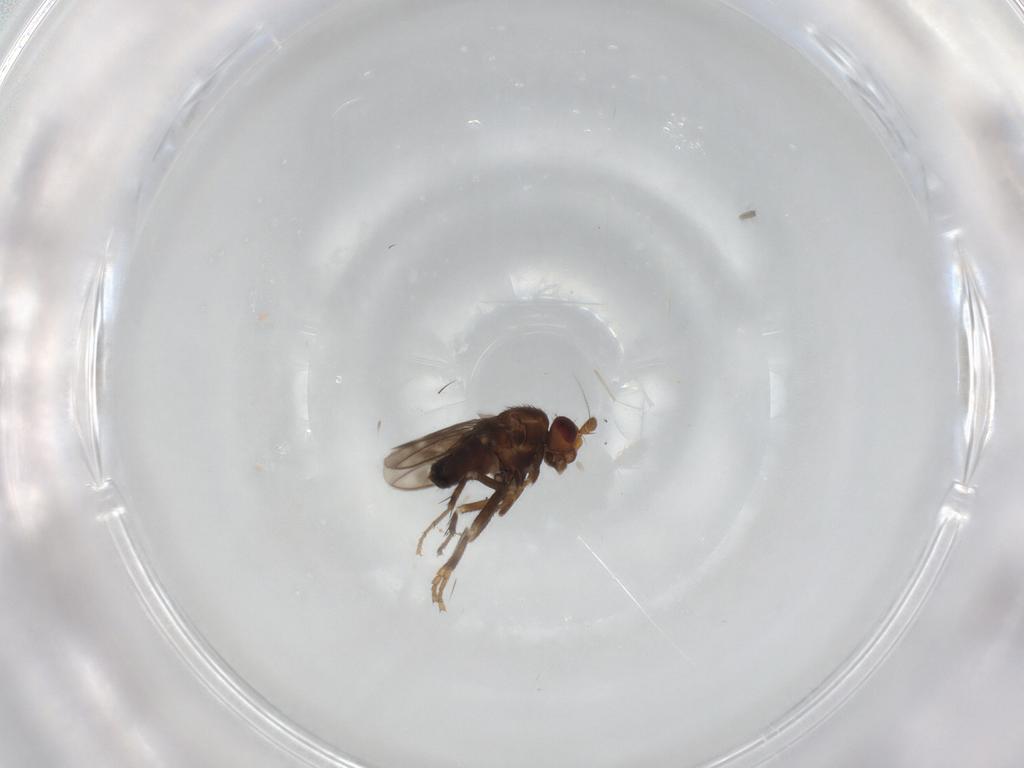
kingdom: Animalia
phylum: Arthropoda
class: Insecta
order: Diptera
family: Sphaeroceridae
